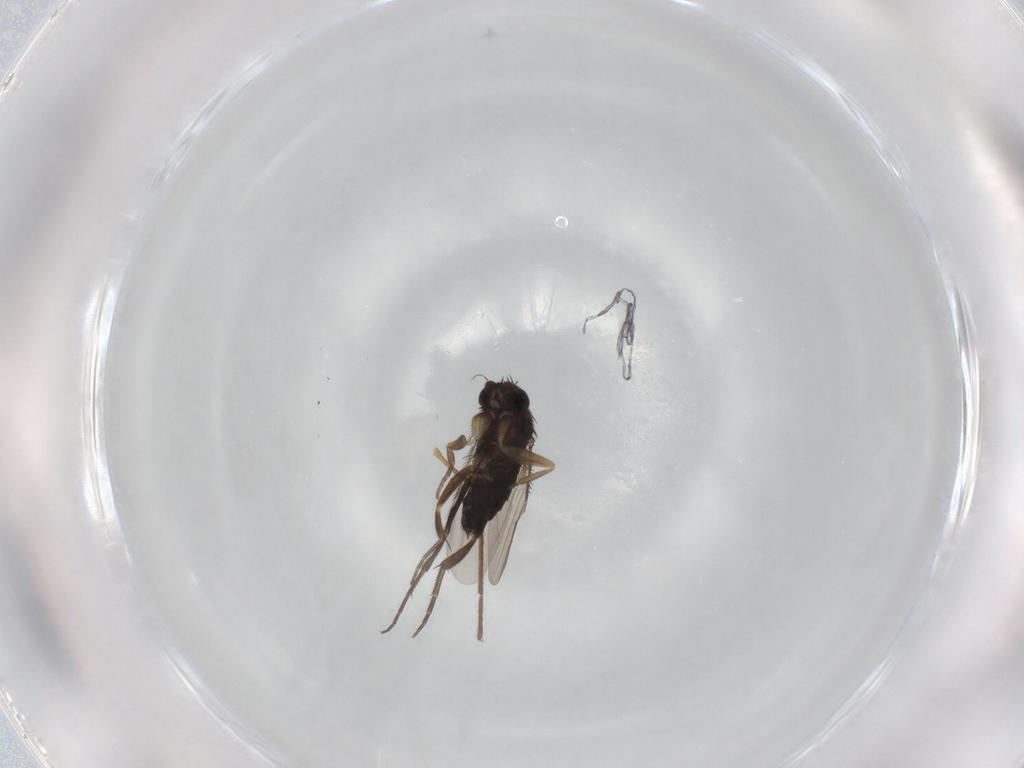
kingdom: Animalia
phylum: Arthropoda
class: Insecta
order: Diptera
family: Phoridae
